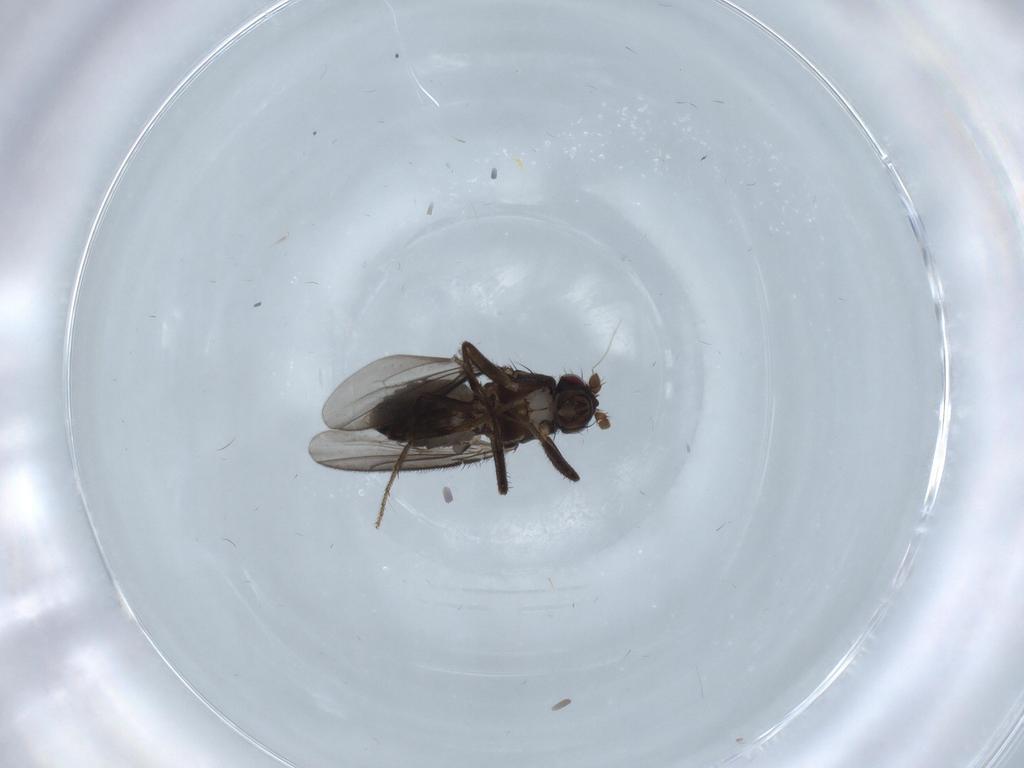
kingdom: Animalia
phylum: Arthropoda
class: Insecta
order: Diptera
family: Sphaeroceridae
